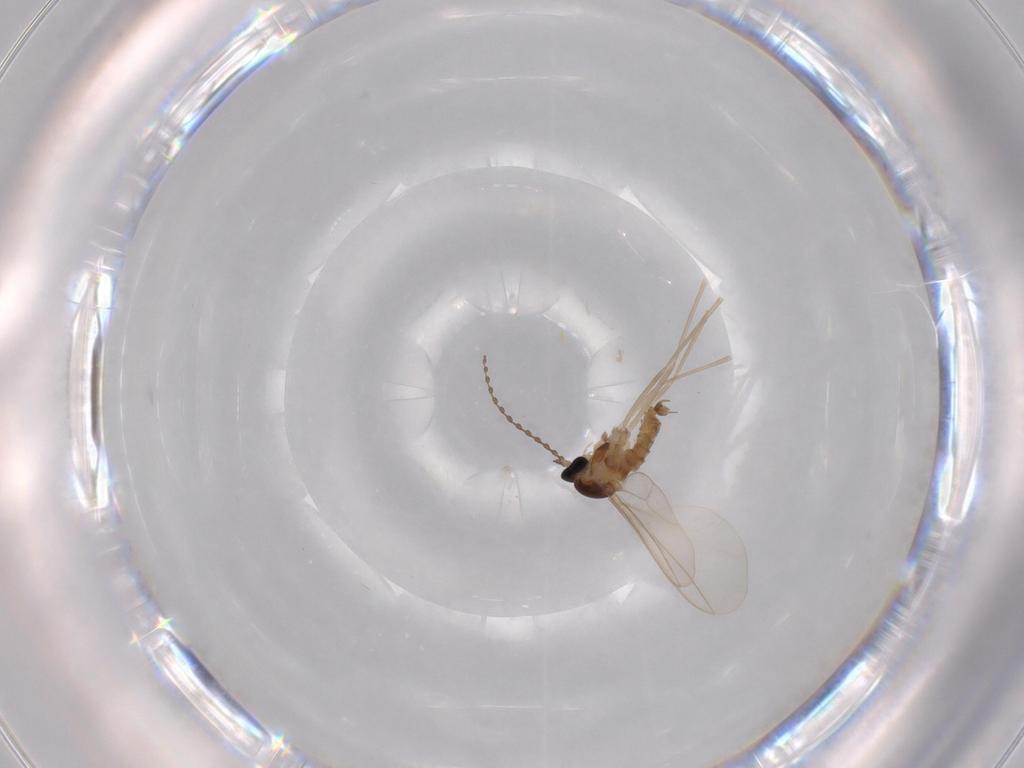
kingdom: Animalia
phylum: Arthropoda
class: Insecta
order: Diptera
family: Cecidomyiidae
